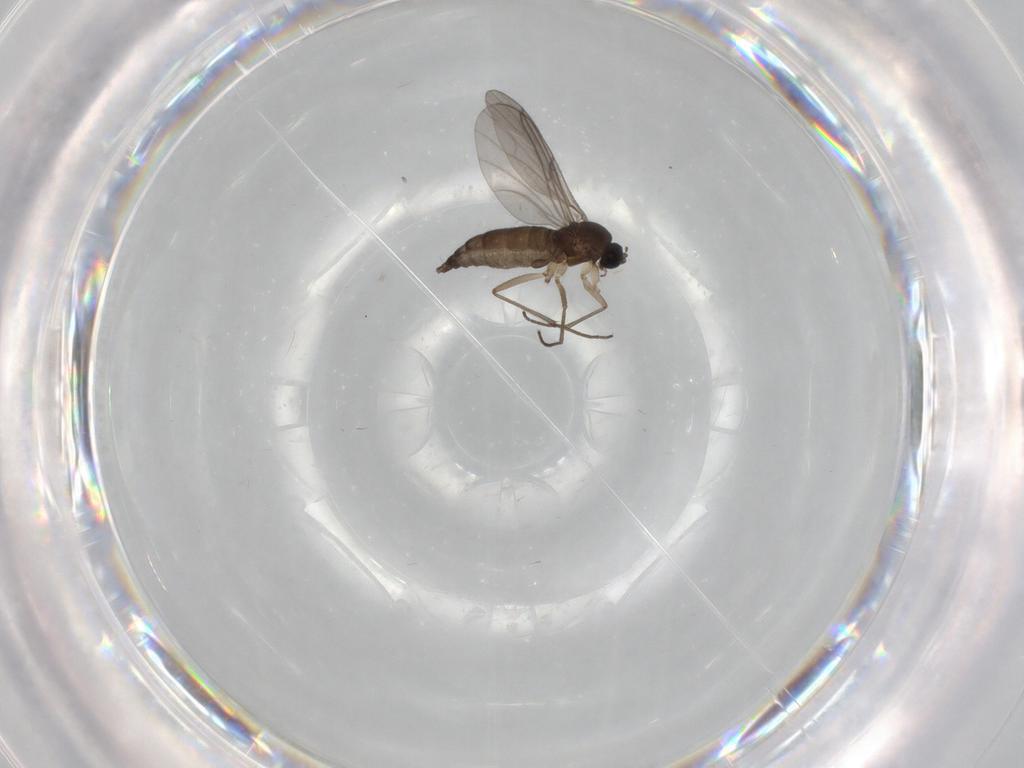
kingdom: Animalia
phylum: Arthropoda
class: Insecta
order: Diptera
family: Sciaridae
